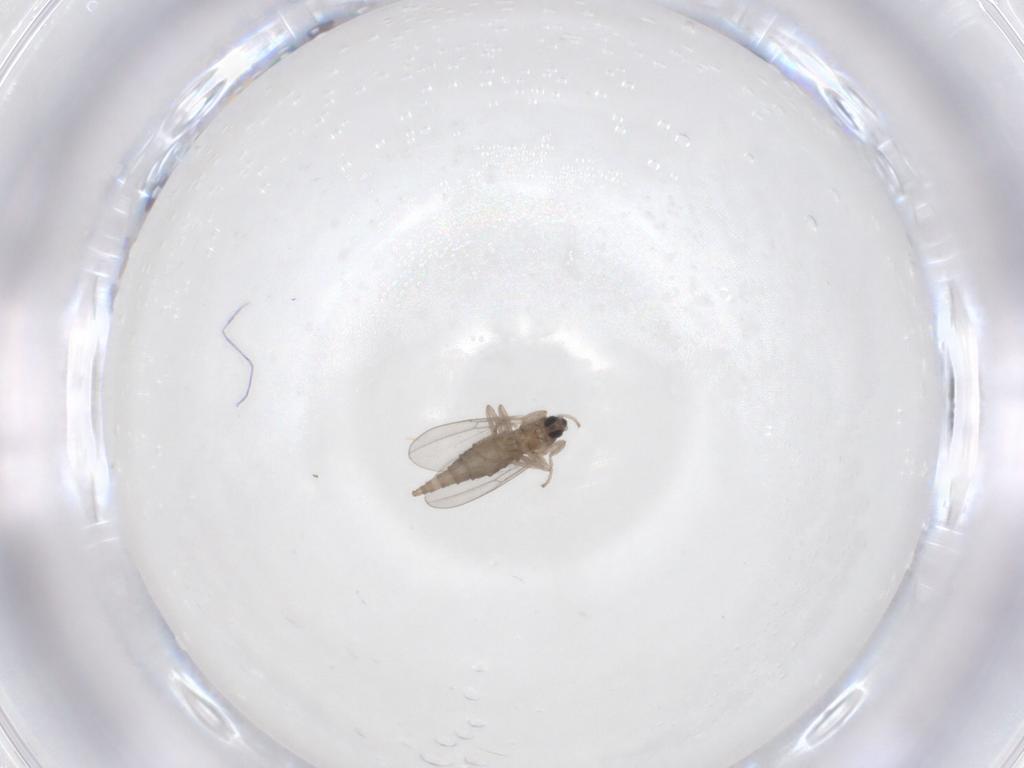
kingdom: Animalia
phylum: Arthropoda
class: Insecta
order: Diptera
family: Cecidomyiidae
